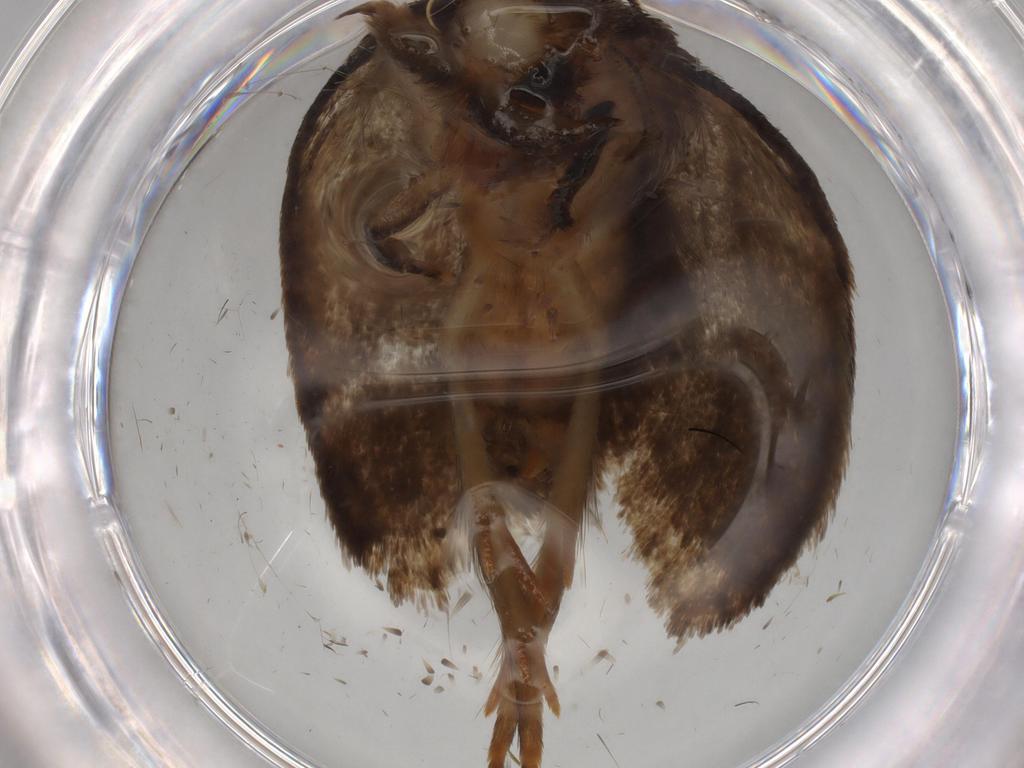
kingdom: Animalia
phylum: Arthropoda
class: Insecta
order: Lepidoptera
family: Tineidae
